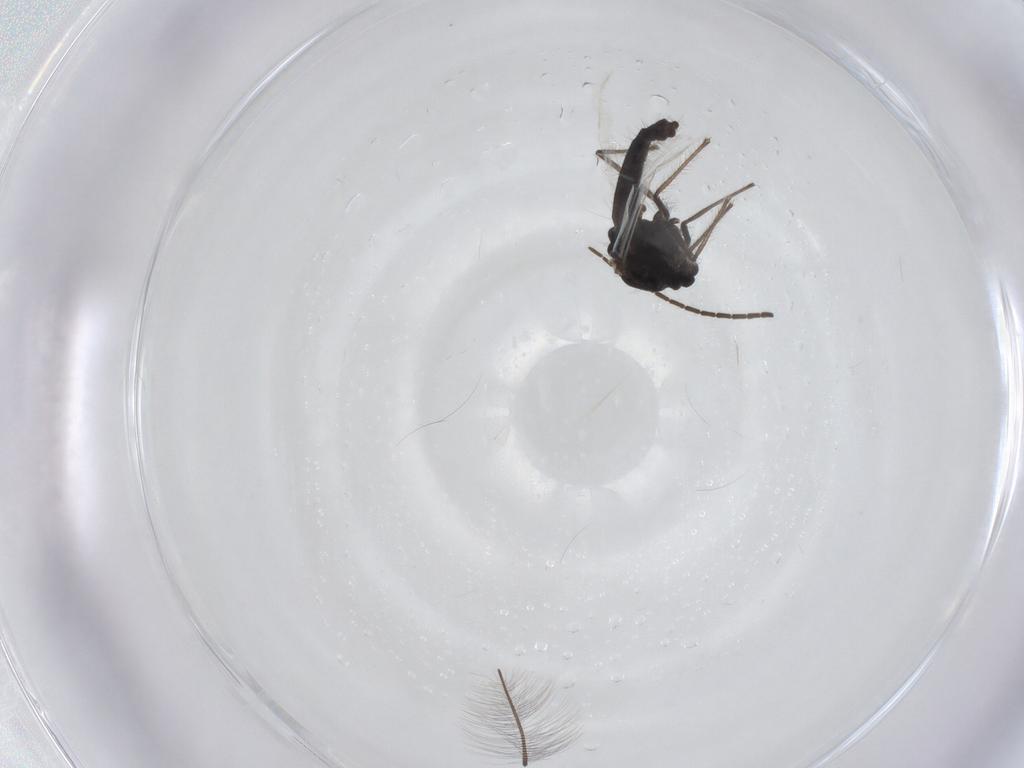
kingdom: Animalia
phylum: Arthropoda
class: Insecta
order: Diptera
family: Sciaridae
